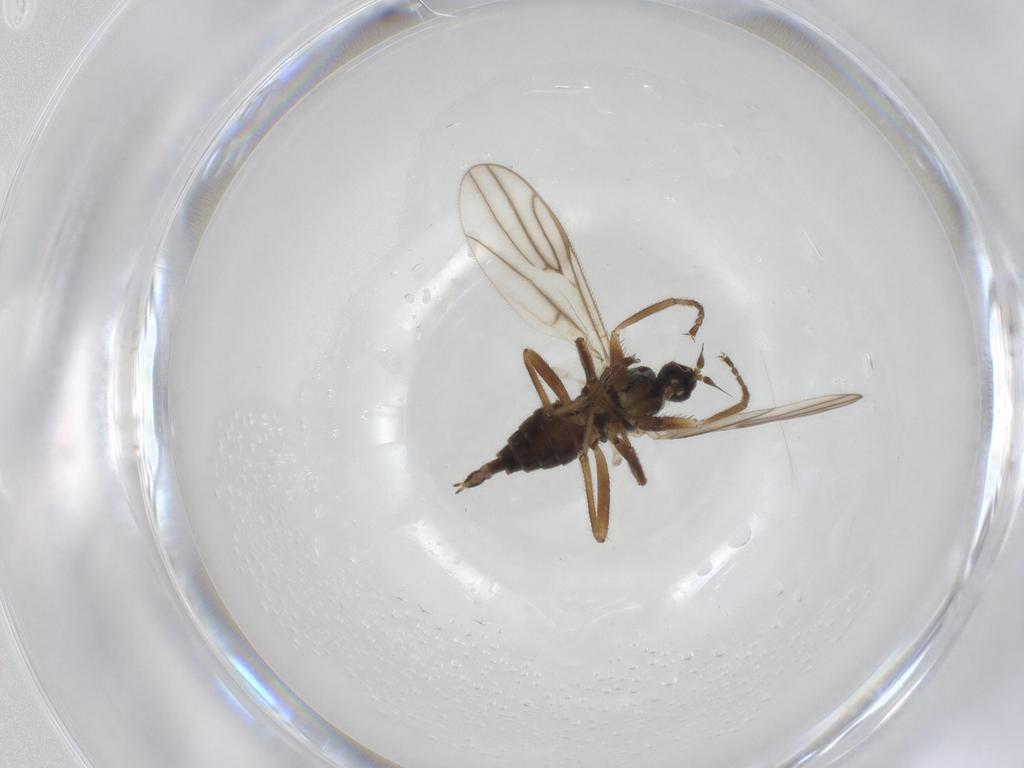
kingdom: Animalia
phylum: Arthropoda
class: Insecta
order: Diptera
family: Hybotidae
